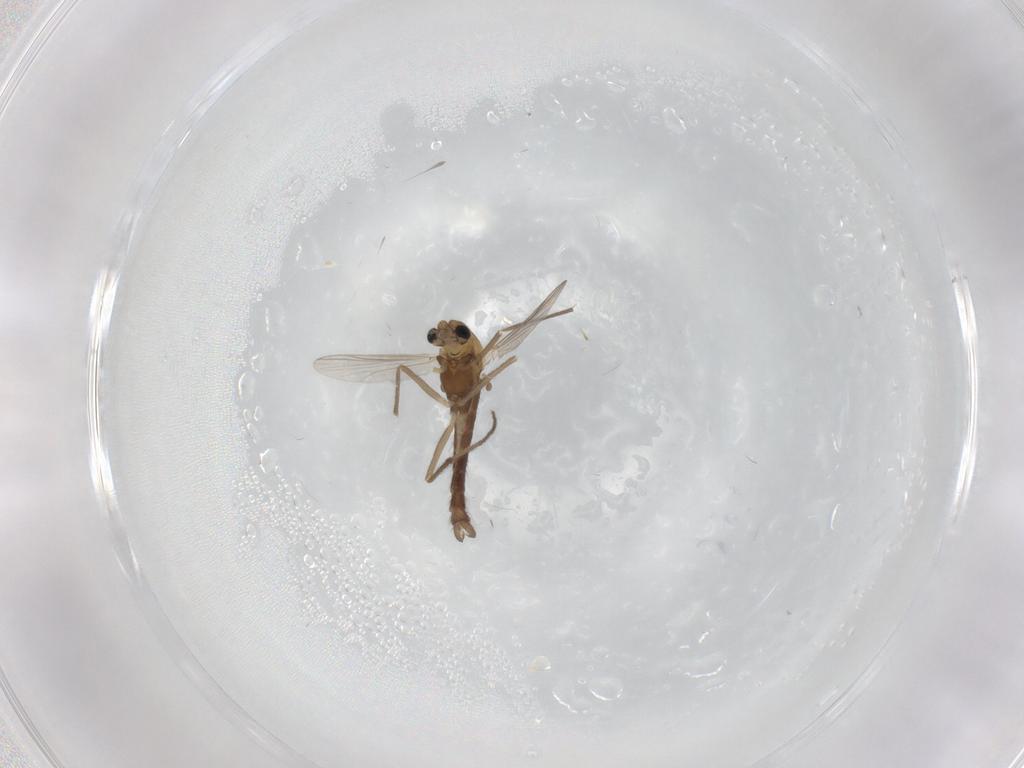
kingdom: Animalia
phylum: Arthropoda
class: Insecta
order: Diptera
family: Chironomidae
